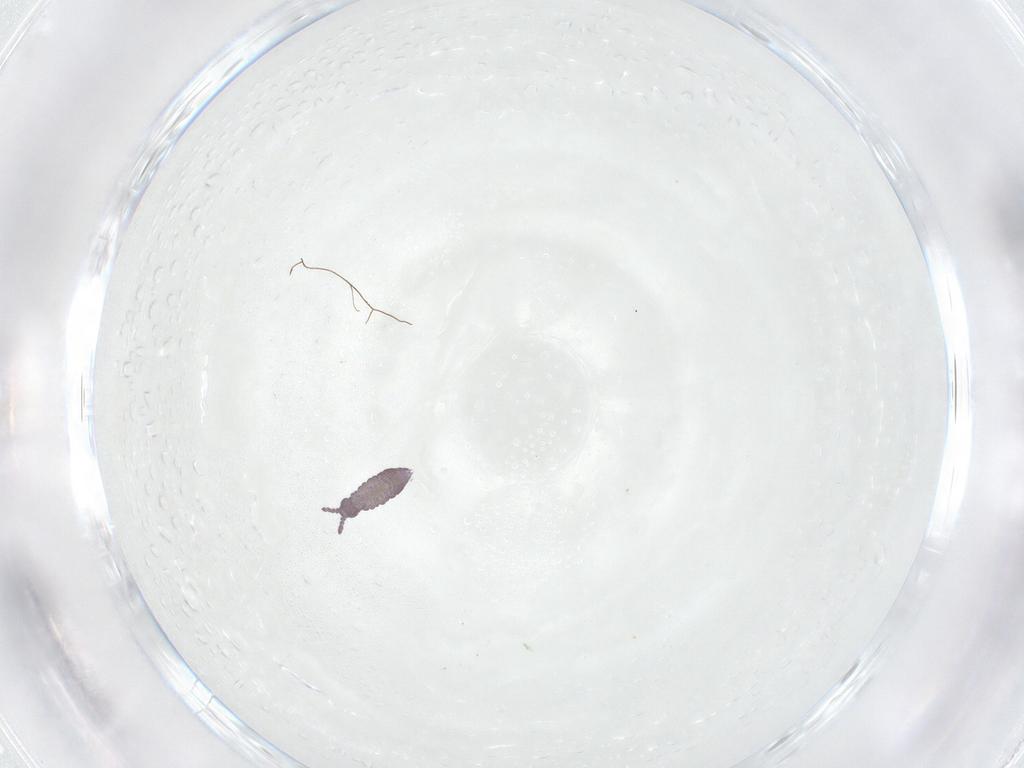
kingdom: Animalia
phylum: Arthropoda
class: Collembola
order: Poduromorpha
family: Hypogastruridae
